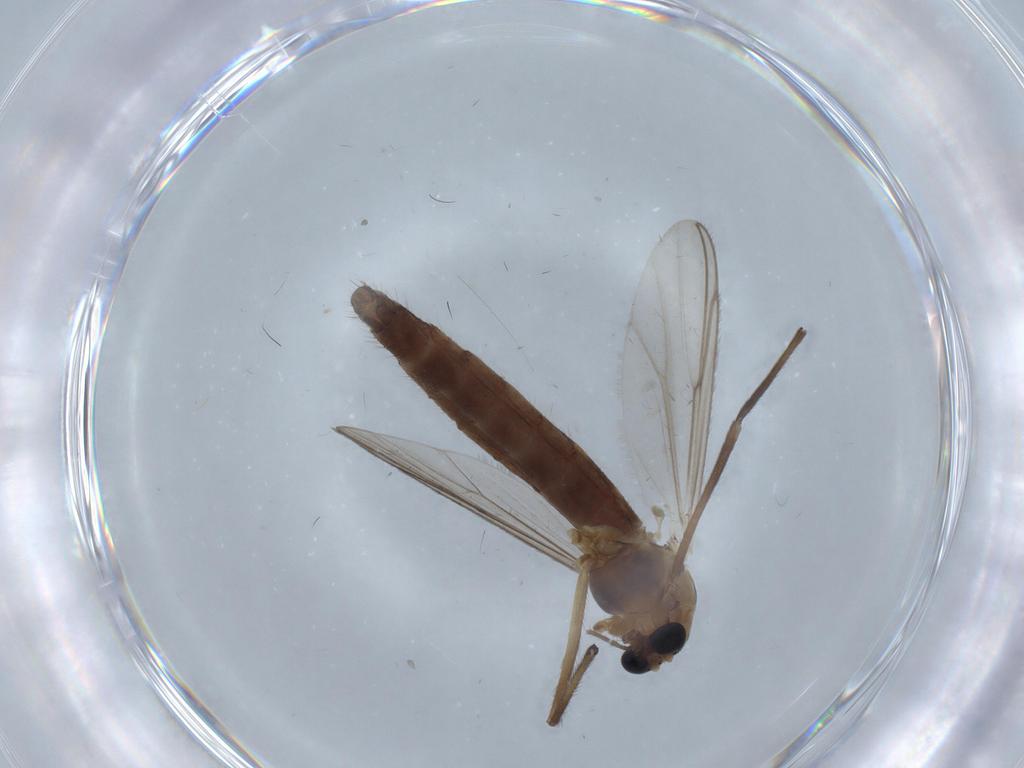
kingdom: Animalia
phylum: Arthropoda
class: Insecta
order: Diptera
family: Chironomidae
